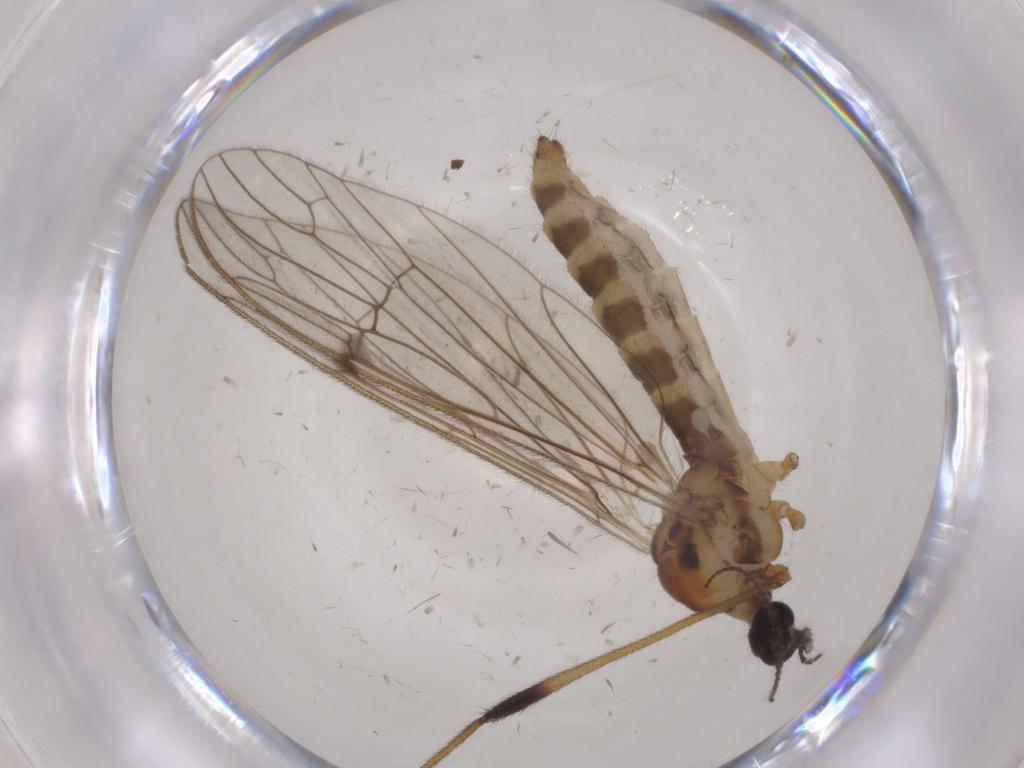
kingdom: Animalia
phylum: Arthropoda
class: Insecta
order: Diptera
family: Limoniidae
